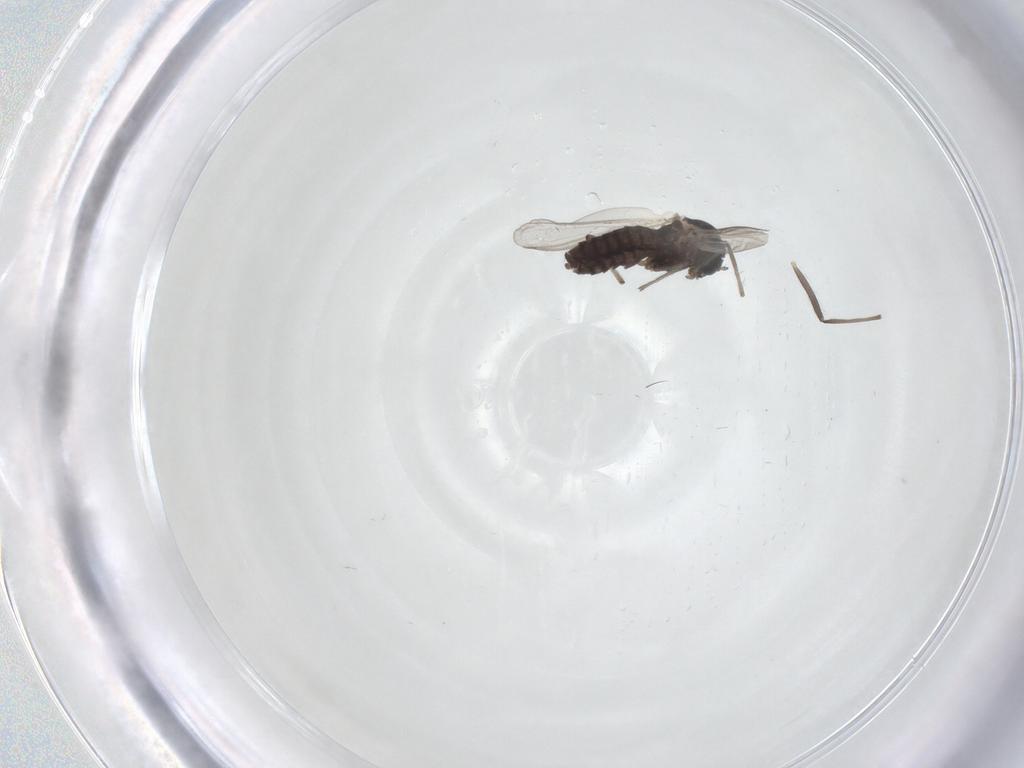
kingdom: Animalia
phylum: Arthropoda
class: Insecta
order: Diptera
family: Chironomidae
